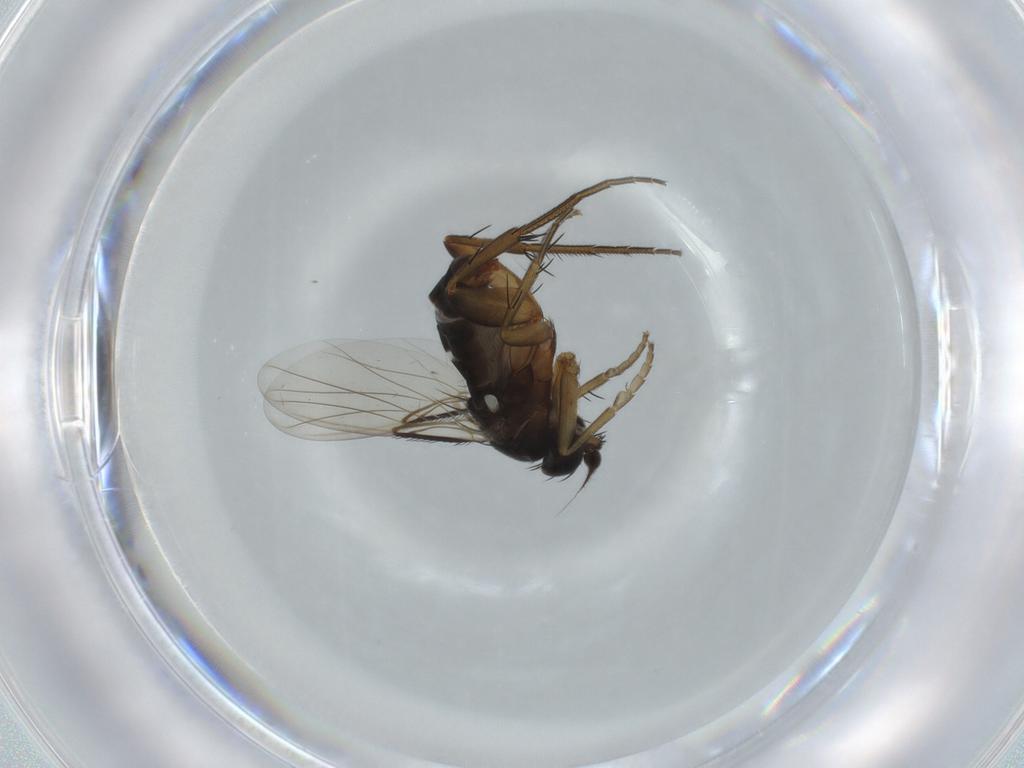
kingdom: Animalia
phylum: Arthropoda
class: Insecta
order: Diptera
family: Phoridae
